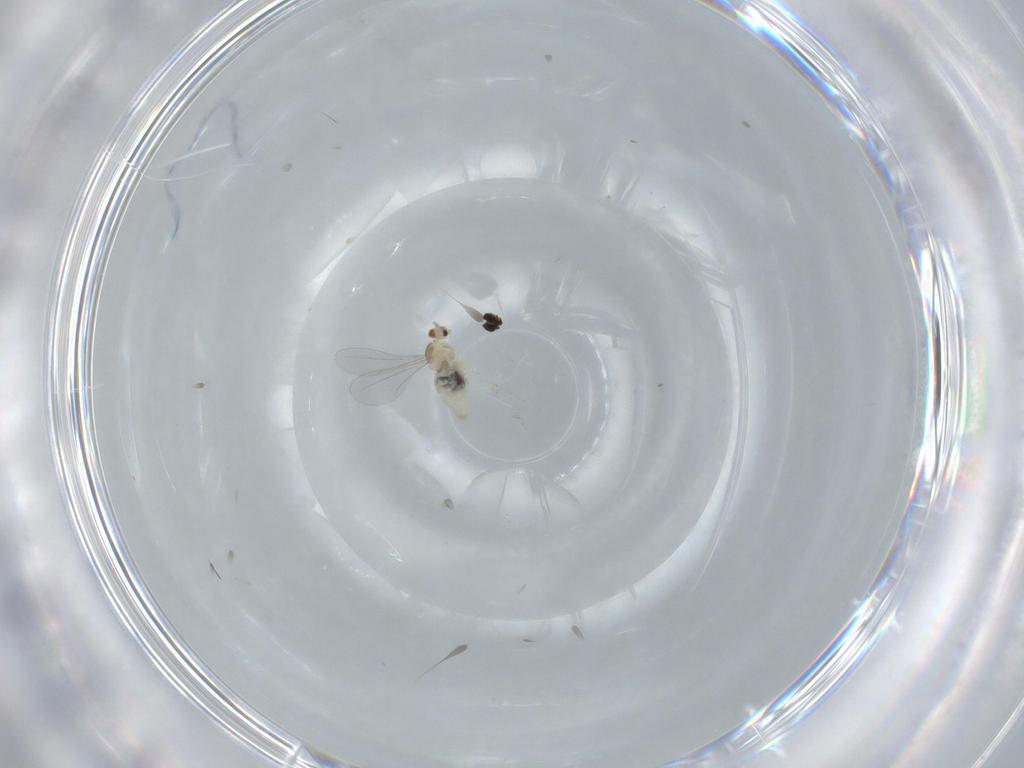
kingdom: Animalia
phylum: Arthropoda
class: Insecta
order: Diptera
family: Cecidomyiidae
